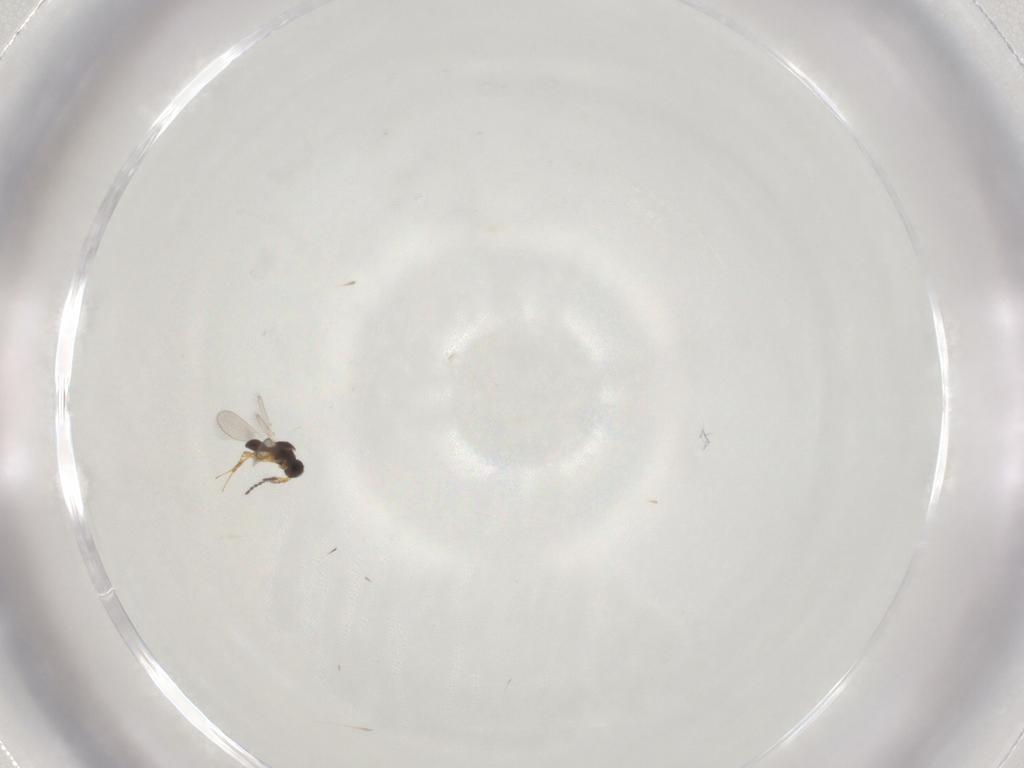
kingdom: Animalia
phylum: Arthropoda
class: Insecta
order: Hymenoptera
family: Platygastridae
